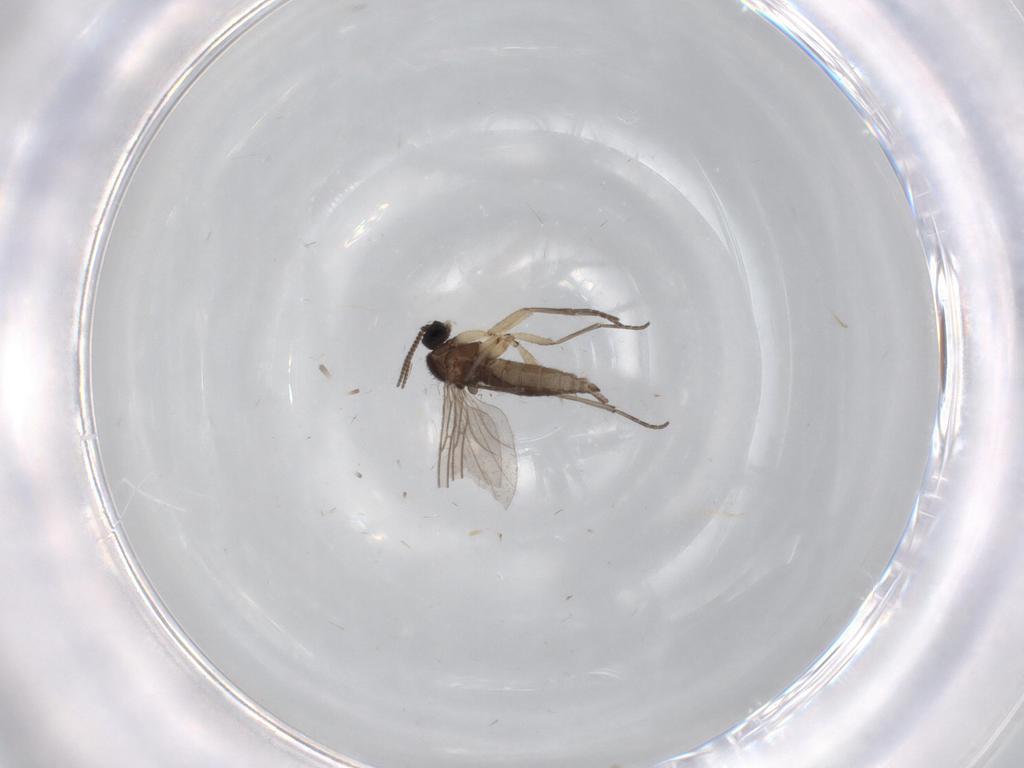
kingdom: Animalia
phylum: Arthropoda
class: Insecta
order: Diptera
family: Sciaridae
